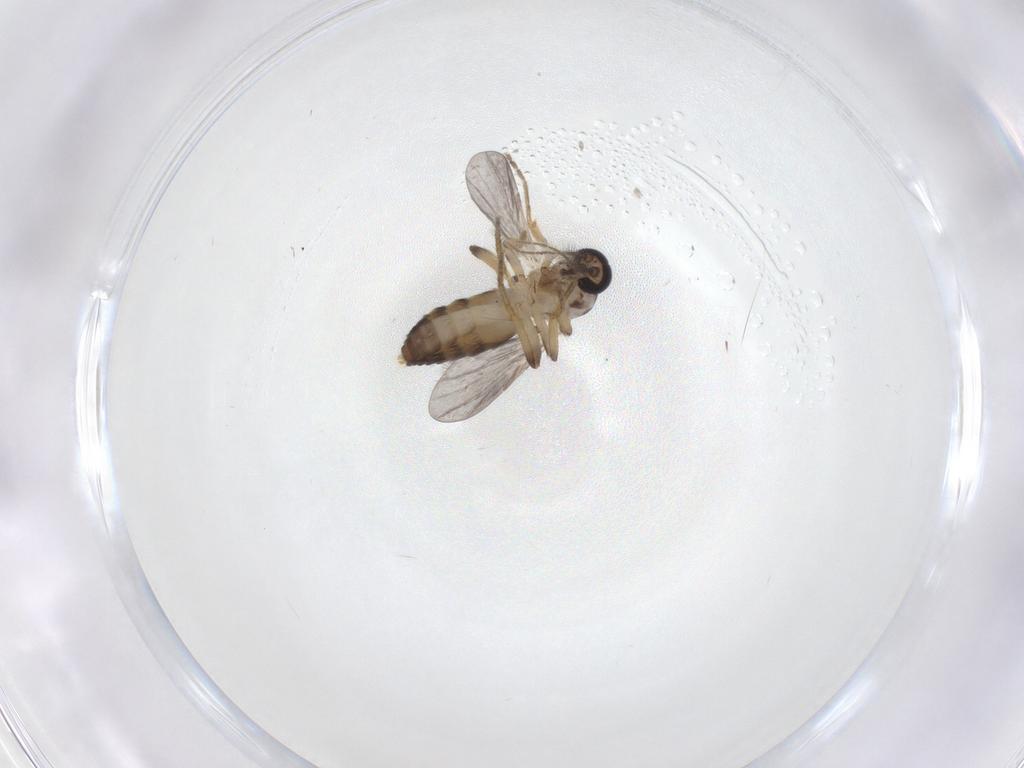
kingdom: Animalia
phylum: Arthropoda
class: Insecta
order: Diptera
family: Ceratopogonidae
